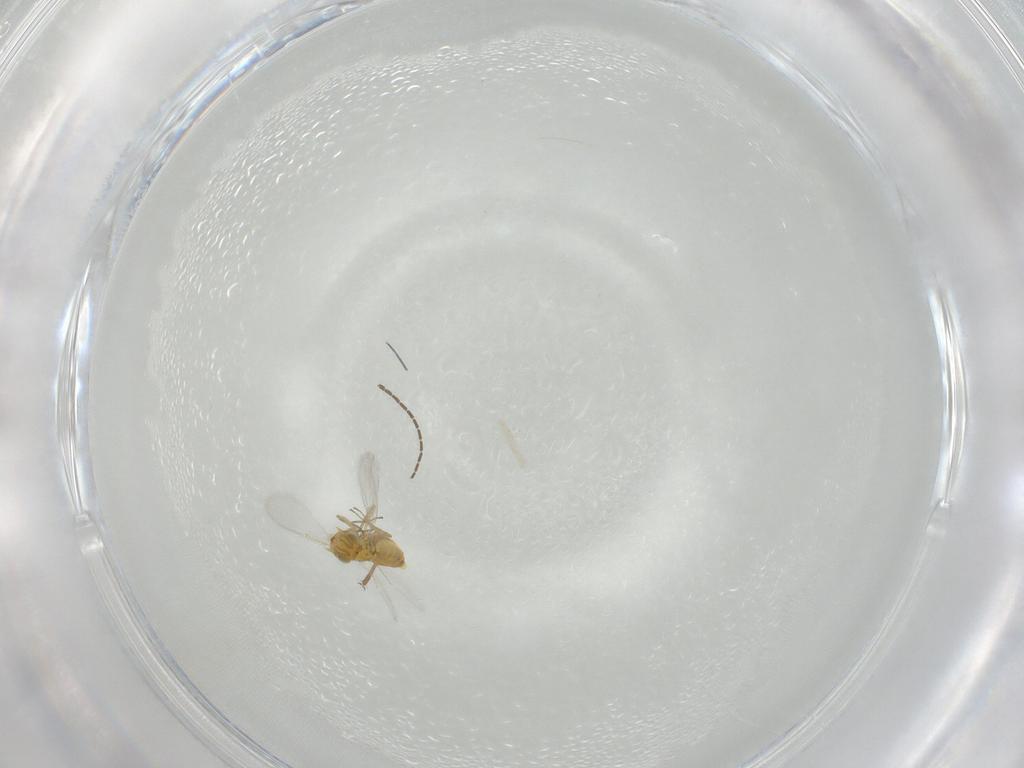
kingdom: Animalia
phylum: Arthropoda
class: Insecta
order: Hymenoptera
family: Aphelinidae
